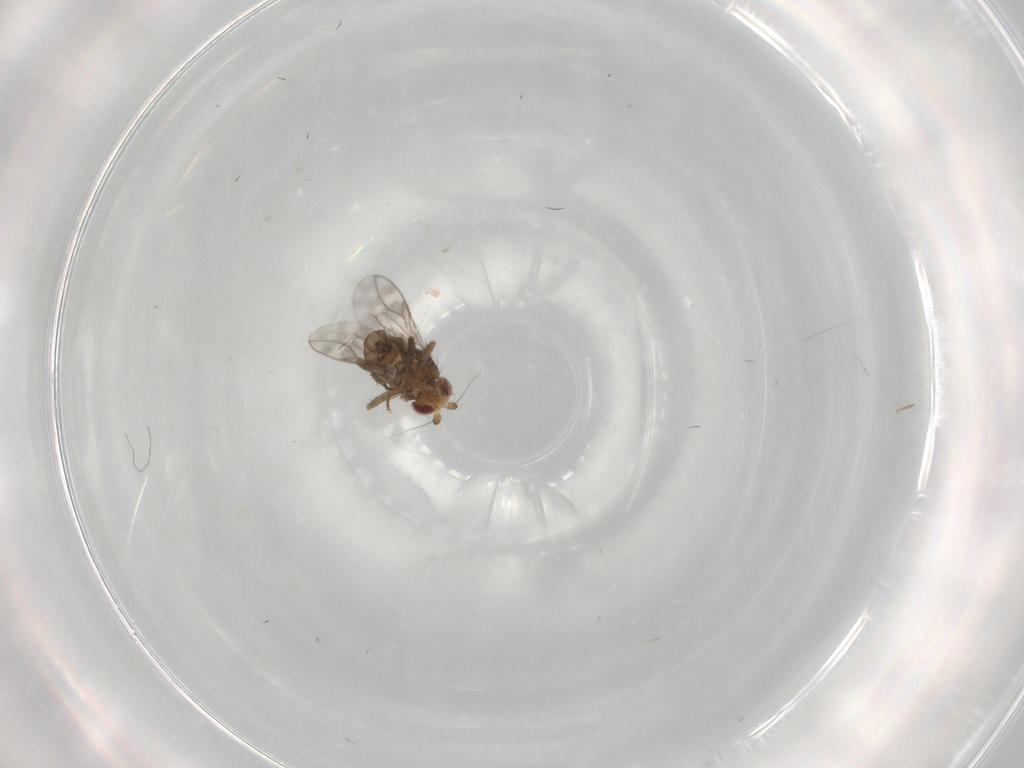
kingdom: Animalia
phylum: Arthropoda
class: Insecta
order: Diptera
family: Sphaeroceridae
